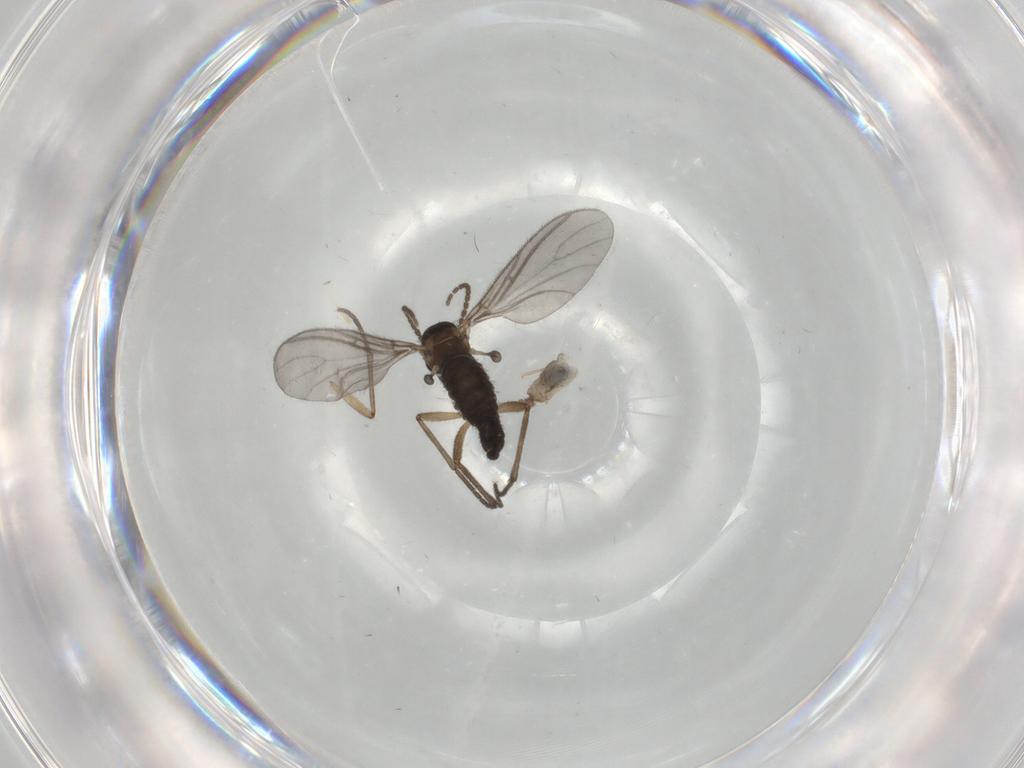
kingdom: Animalia
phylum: Arthropoda
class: Insecta
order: Diptera
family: Sciaridae
